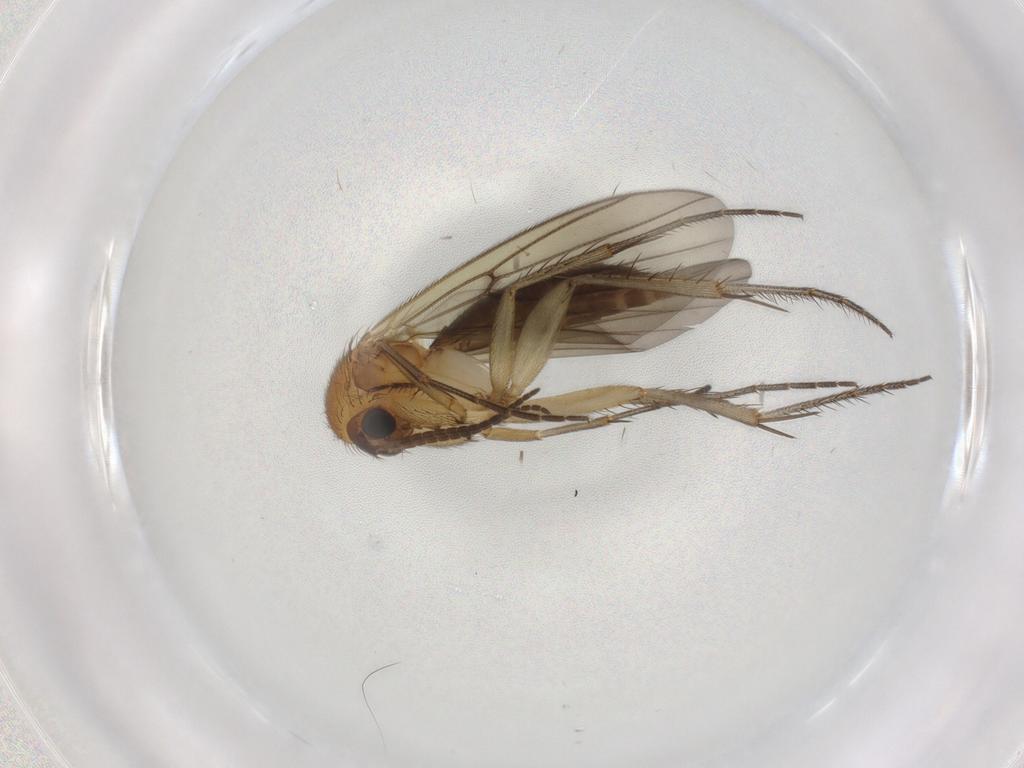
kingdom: Animalia
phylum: Arthropoda
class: Insecta
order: Diptera
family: Mycetophilidae
